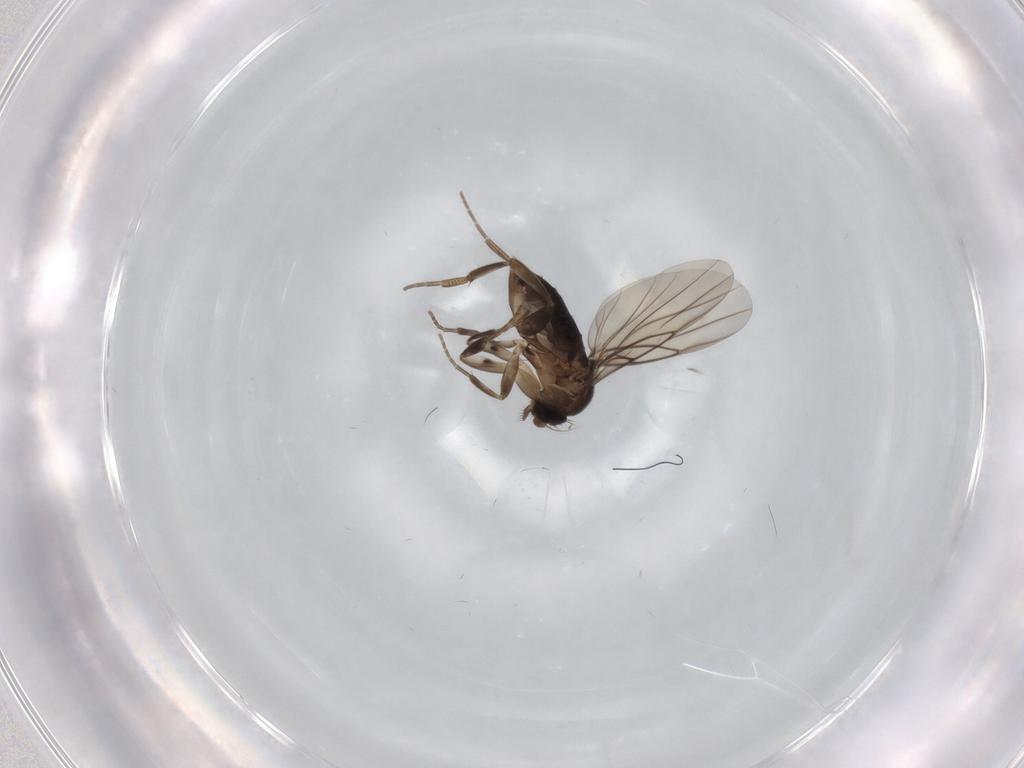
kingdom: Animalia
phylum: Arthropoda
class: Insecta
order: Diptera
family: Phoridae
